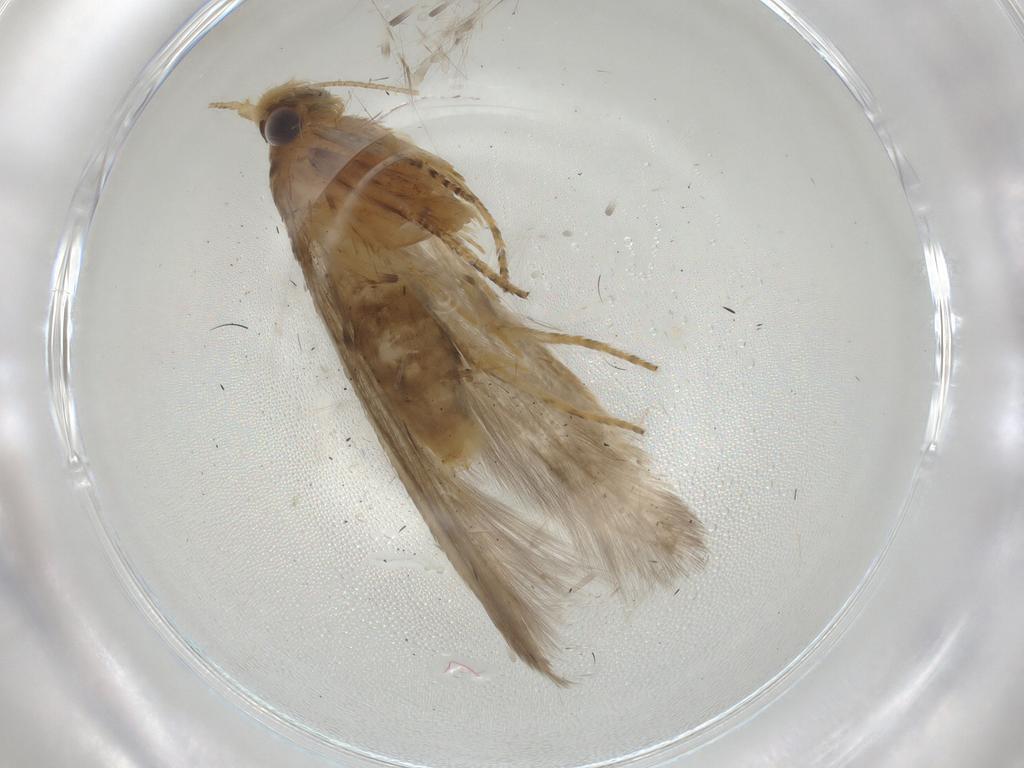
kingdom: Animalia
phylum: Arthropoda
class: Insecta
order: Lepidoptera
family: Coleophoridae
